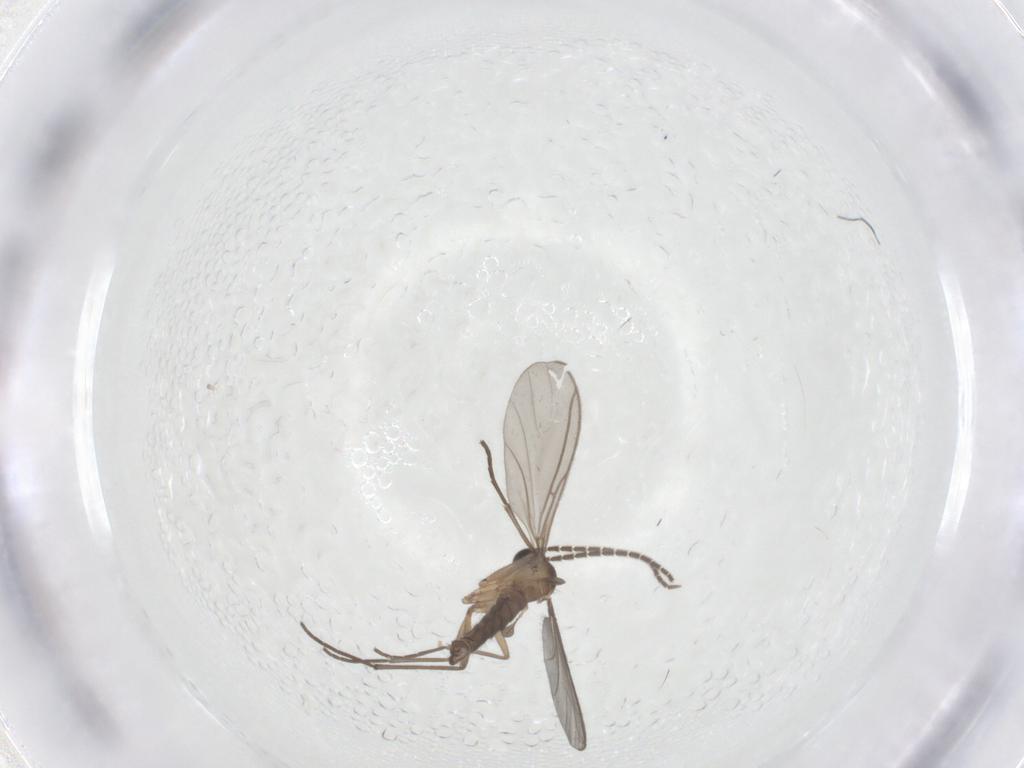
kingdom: Animalia
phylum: Arthropoda
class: Insecta
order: Diptera
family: Sciaridae
